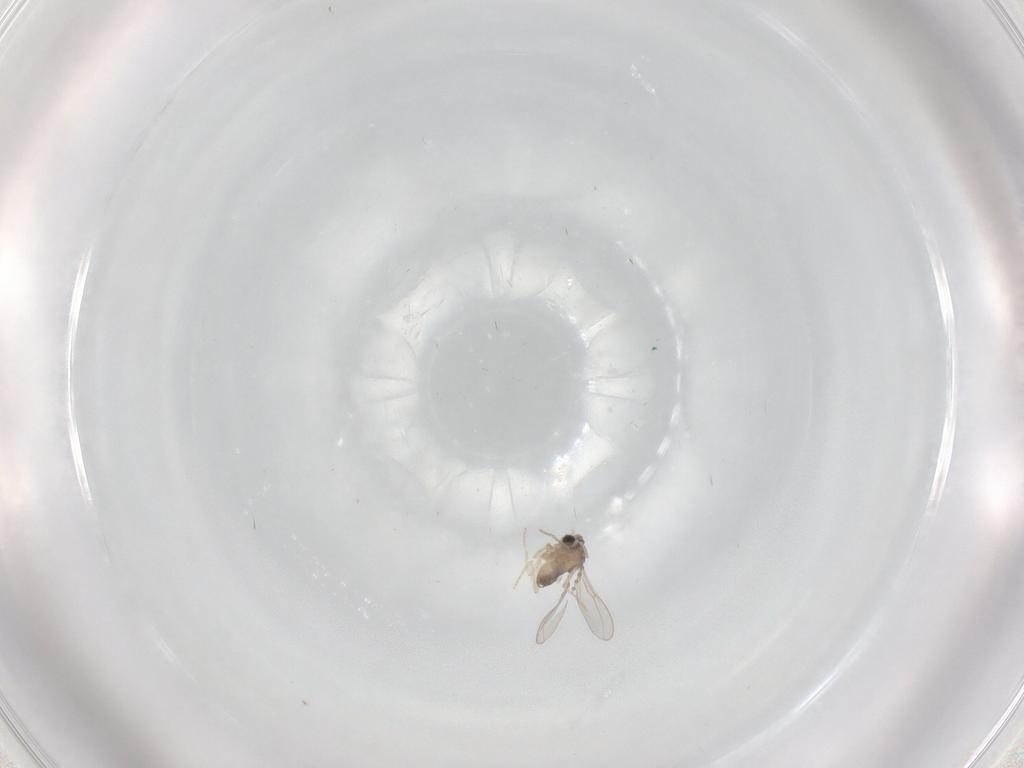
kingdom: Animalia
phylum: Arthropoda
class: Insecta
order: Diptera
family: Cecidomyiidae
